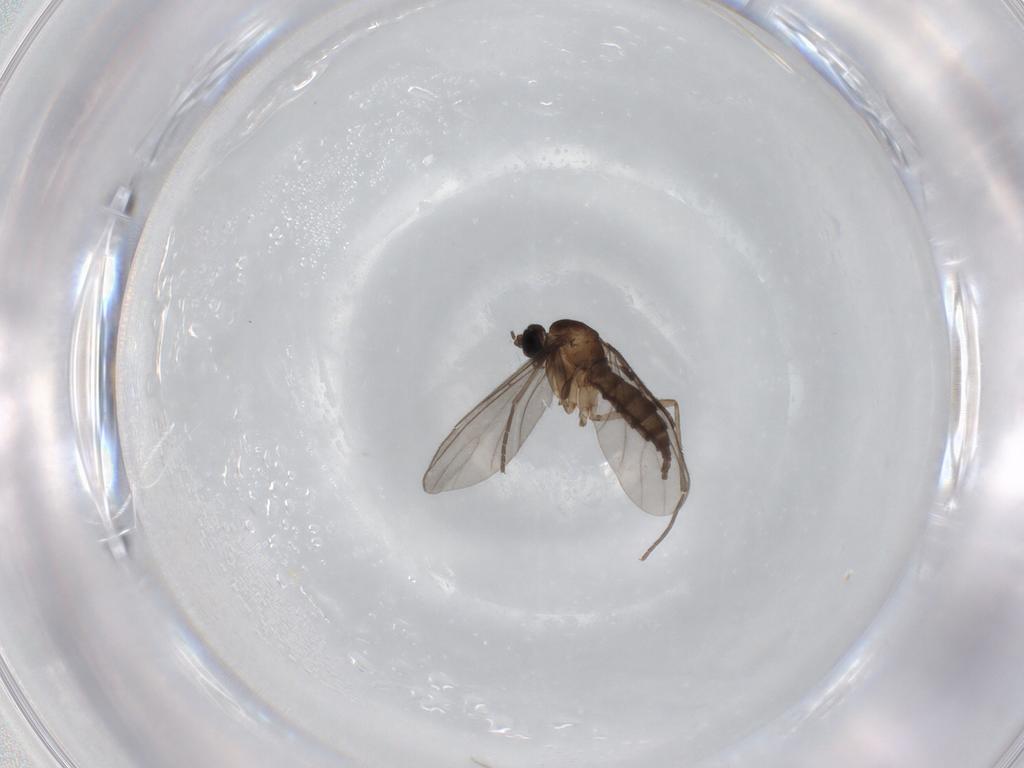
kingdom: Animalia
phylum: Arthropoda
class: Insecta
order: Diptera
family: Sciaridae
